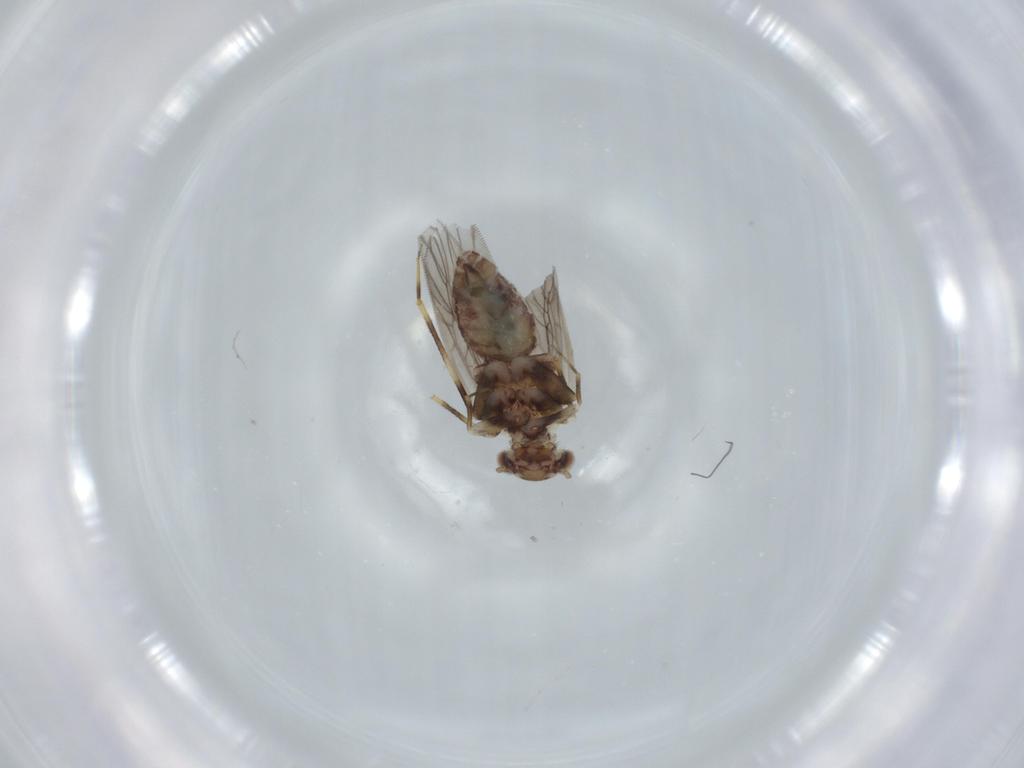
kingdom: Animalia
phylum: Arthropoda
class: Insecta
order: Psocodea
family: Lepidopsocidae
